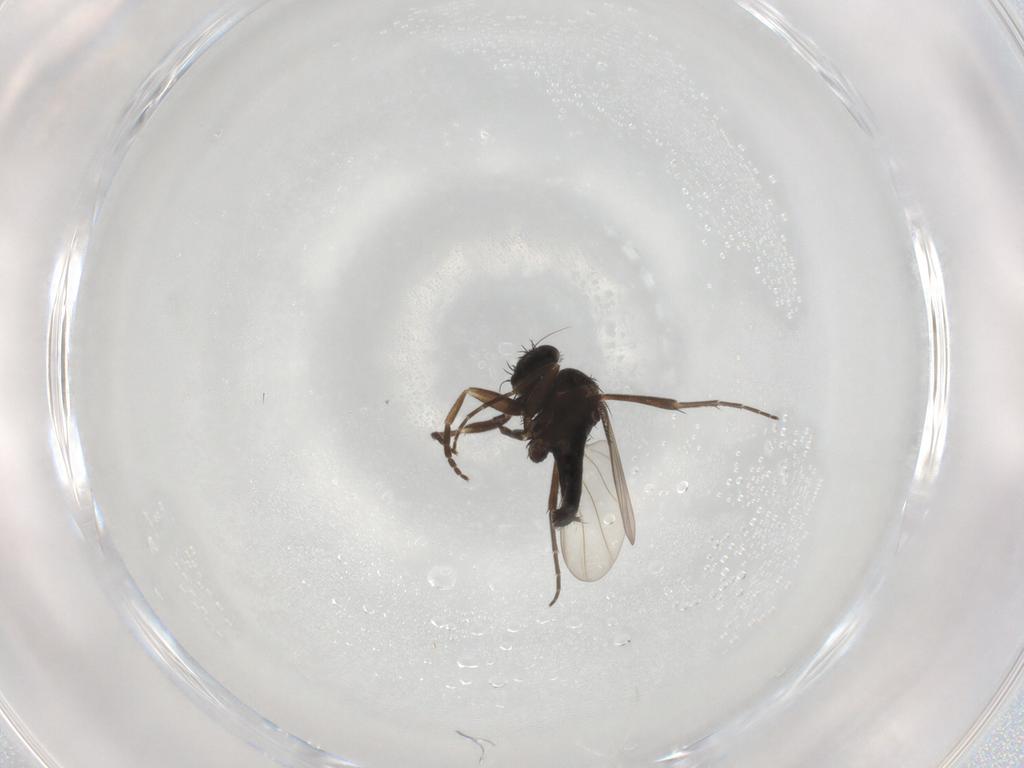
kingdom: Animalia
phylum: Arthropoda
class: Insecta
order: Diptera
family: Phoridae
